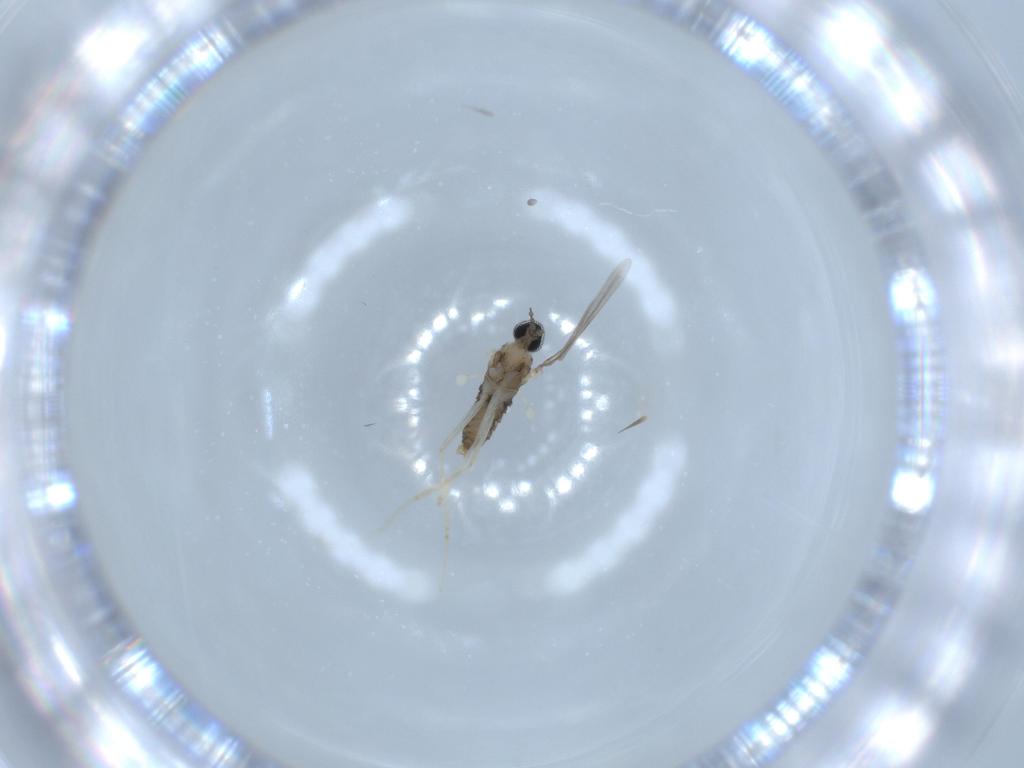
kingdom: Animalia
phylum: Arthropoda
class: Insecta
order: Diptera
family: Cecidomyiidae
